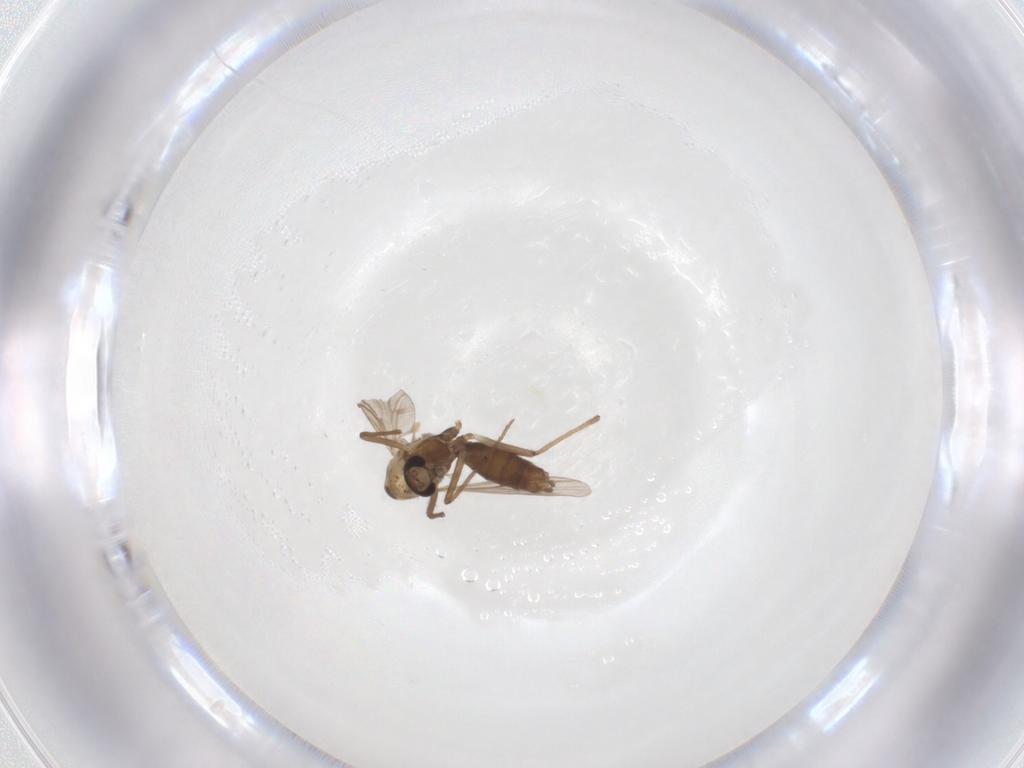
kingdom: Animalia
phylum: Arthropoda
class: Insecta
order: Diptera
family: Chironomidae
